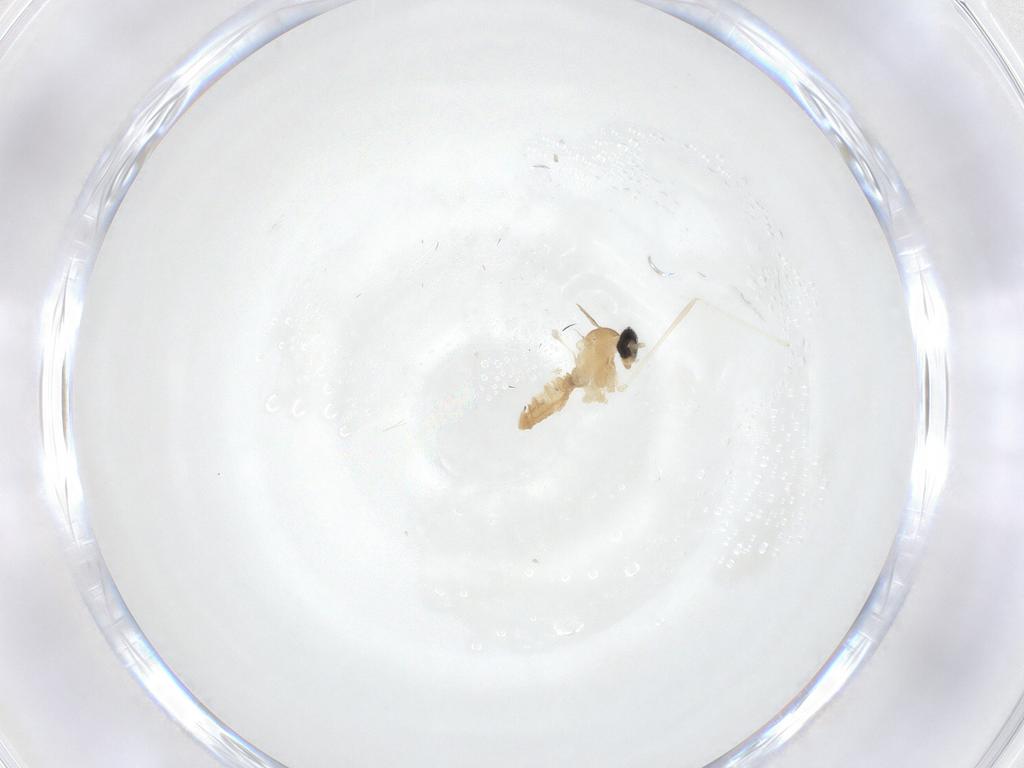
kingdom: Animalia
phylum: Arthropoda
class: Insecta
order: Diptera
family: Cecidomyiidae
